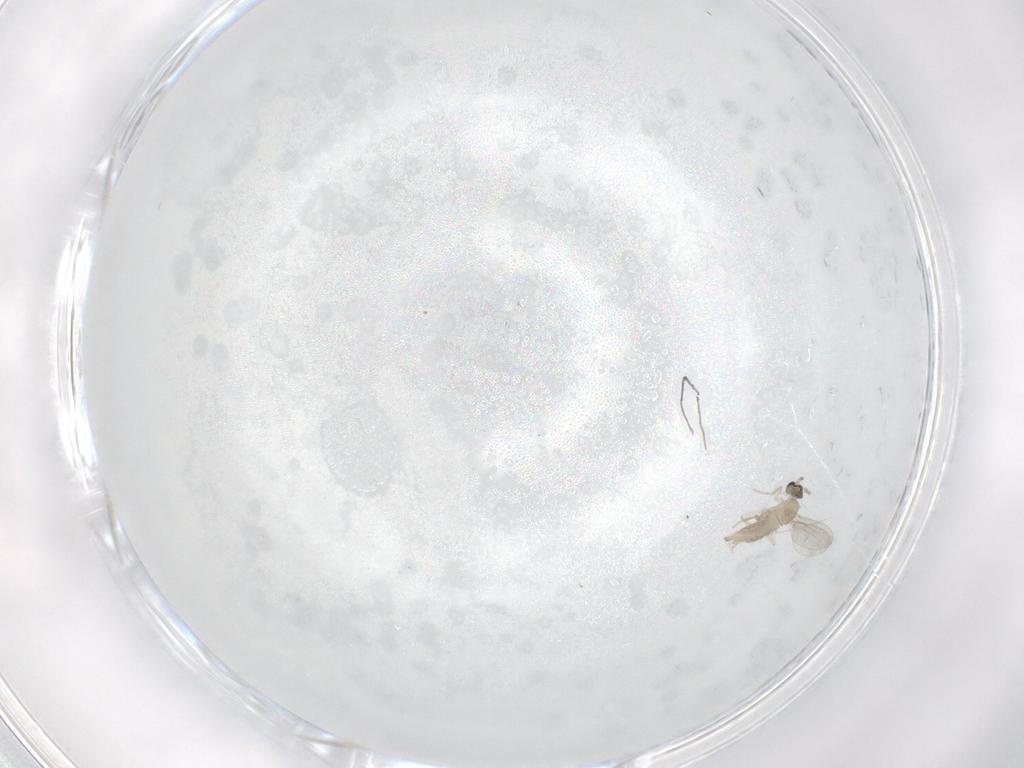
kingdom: Animalia
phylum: Arthropoda
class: Insecta
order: Diptera
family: Cecidomyiidae
